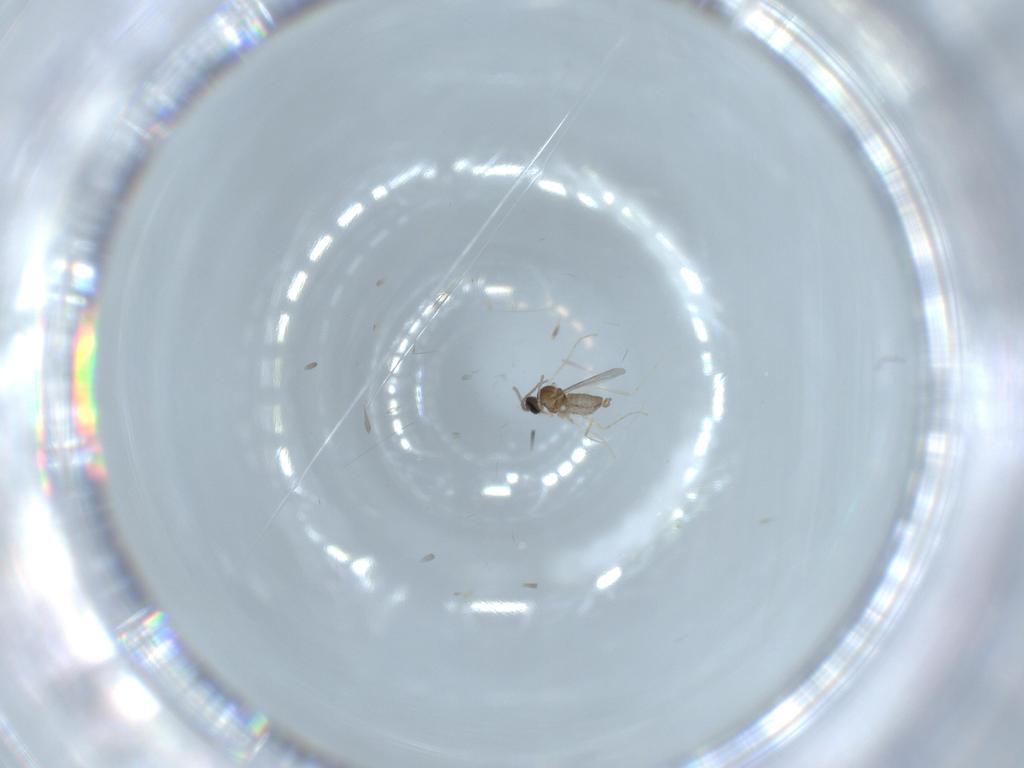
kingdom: Animalia
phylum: Arthropoda
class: Insecta
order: Diptera
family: Cecidomyiidae
